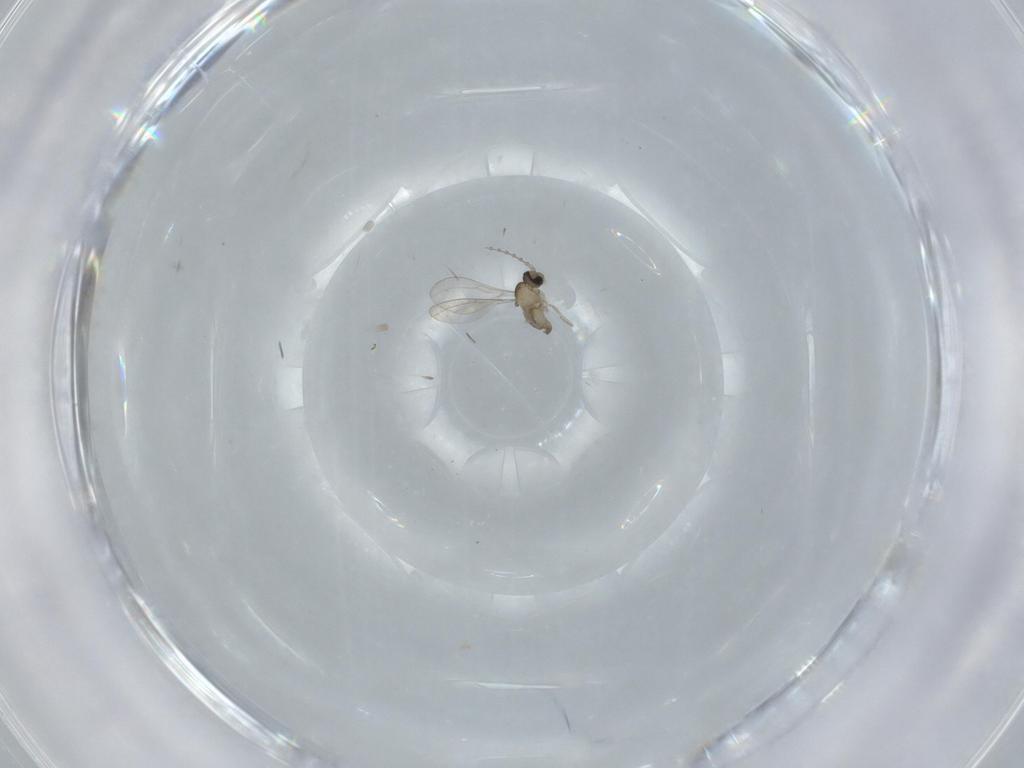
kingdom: Animalia
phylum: Arthropoda
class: Insecta
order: Diptera
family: Cecidomyiidae
